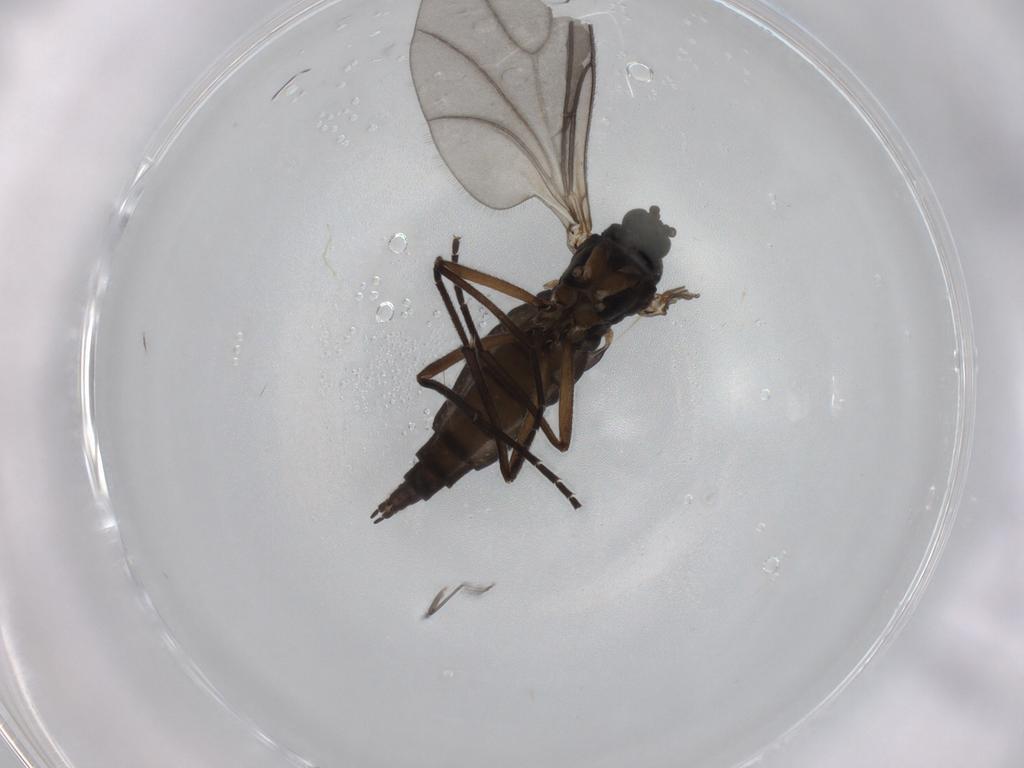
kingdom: Animalia
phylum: Arthropoda
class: Insecta
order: Diptera
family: Sciaridae
